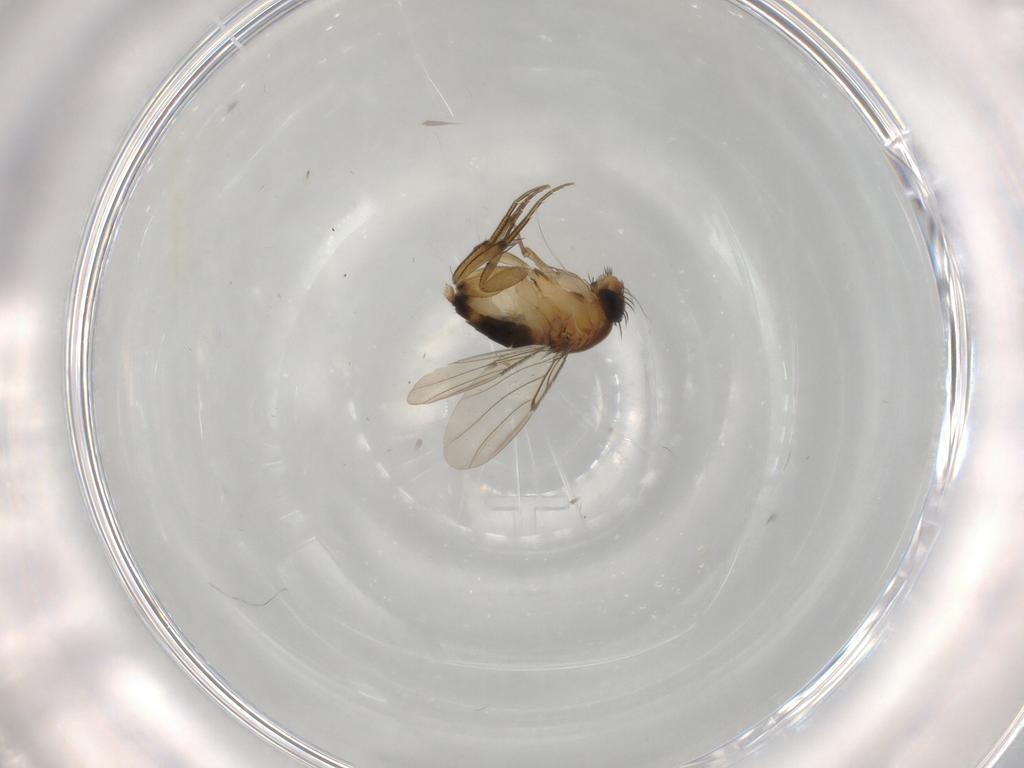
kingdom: Animalia
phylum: Arthropoda
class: Insecta
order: Diptera
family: Phoridae
